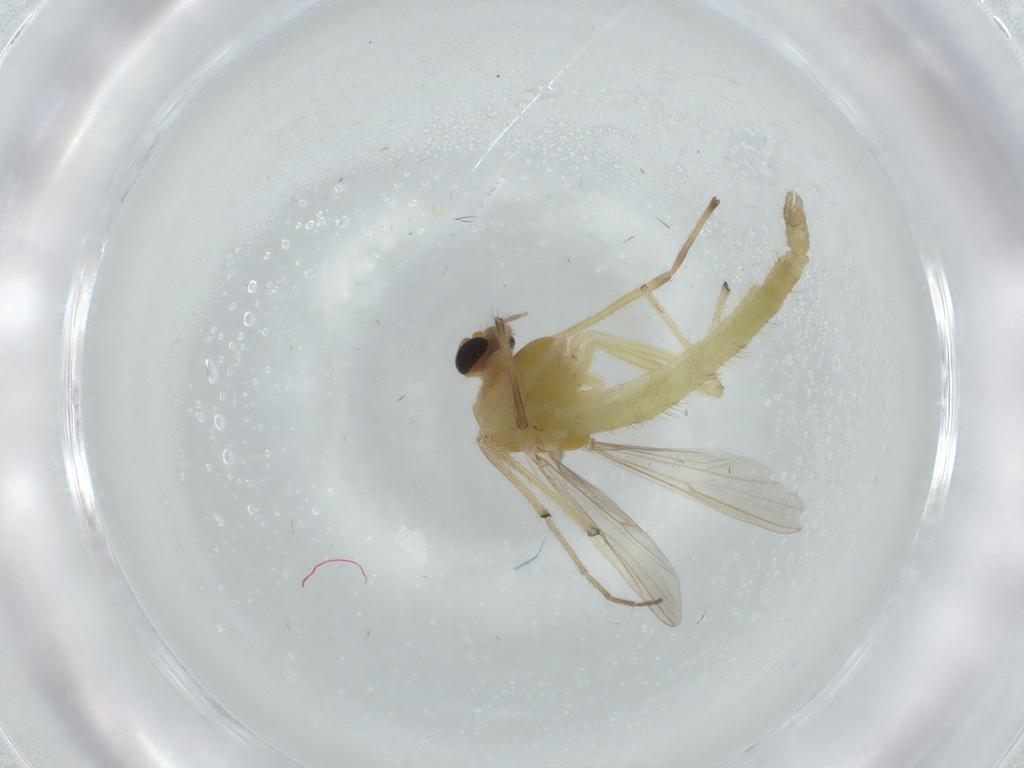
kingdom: Animalia
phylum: Arthropoda
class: Insecta
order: Diptera
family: Chironomidae
